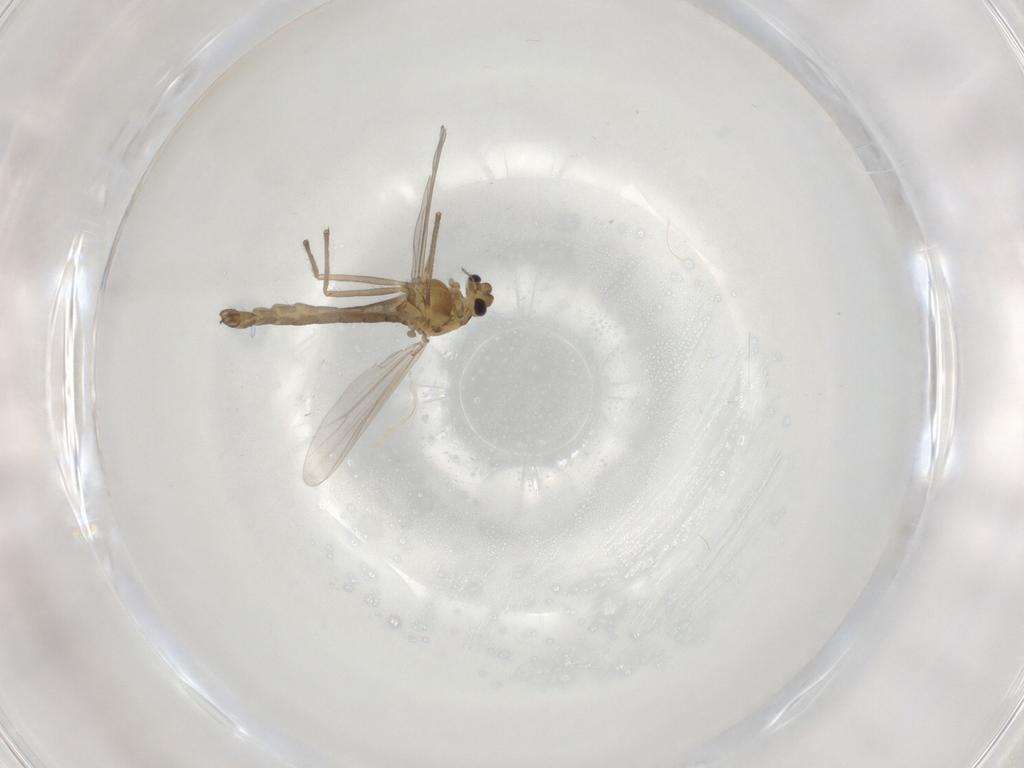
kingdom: Animalia
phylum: Arthropoda
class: Insecta
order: Diptera
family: Chironomidae
